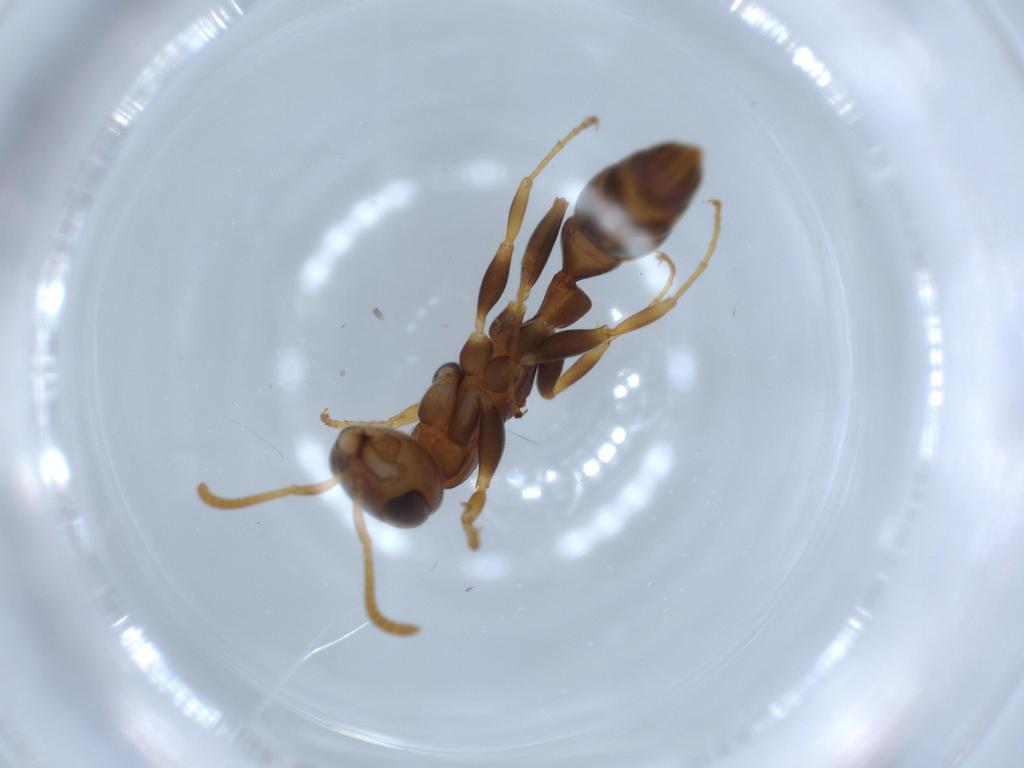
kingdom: Animalia
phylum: Arthropoda
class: Insecta
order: Hymenoptera
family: Formicidae
